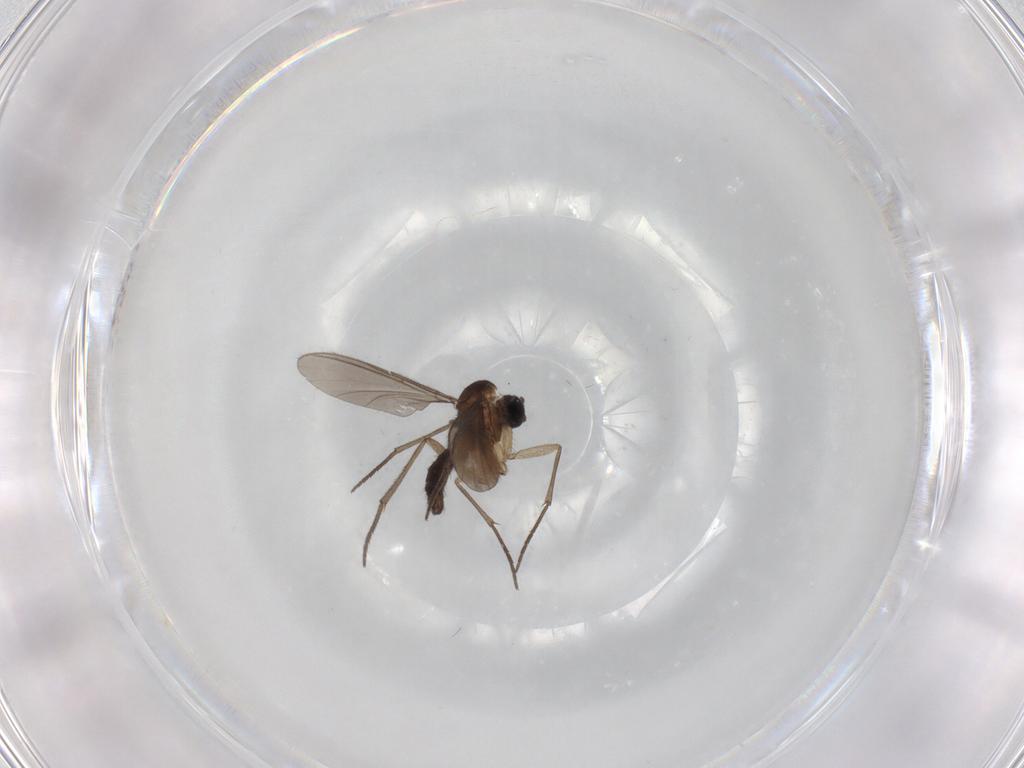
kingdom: Animalia
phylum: Arthropoda
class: Insecta
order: Diptera
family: Sciaridae
